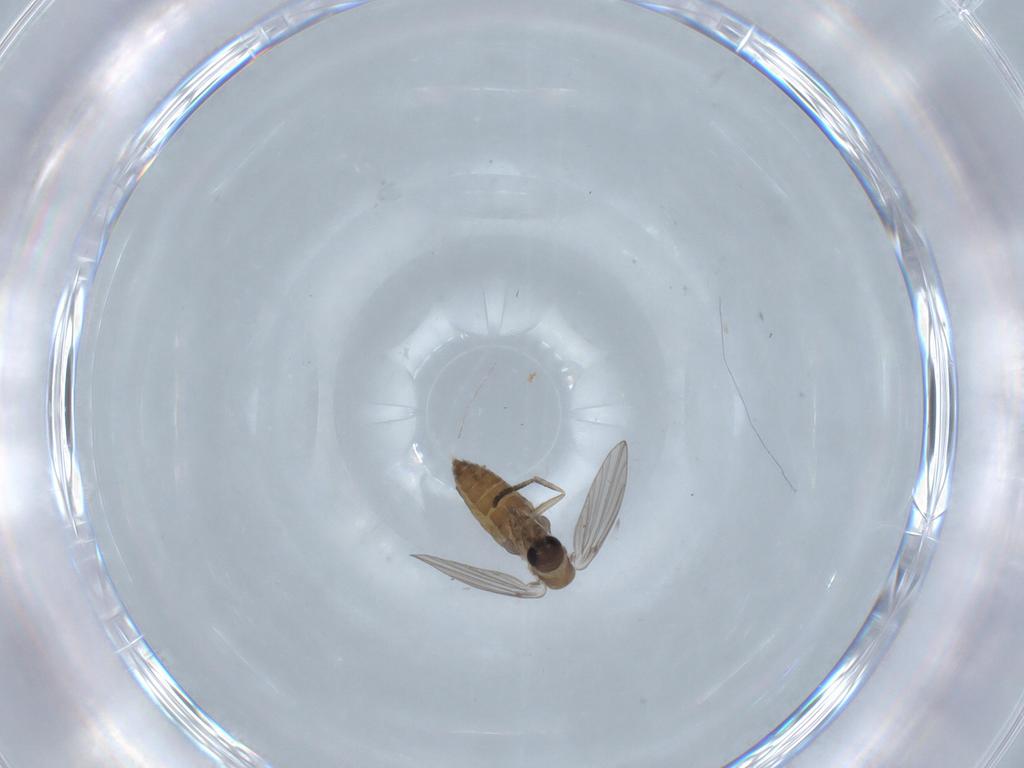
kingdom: Animalia
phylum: Arthropoda
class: Insecta
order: Diptera
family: Psychodidae
